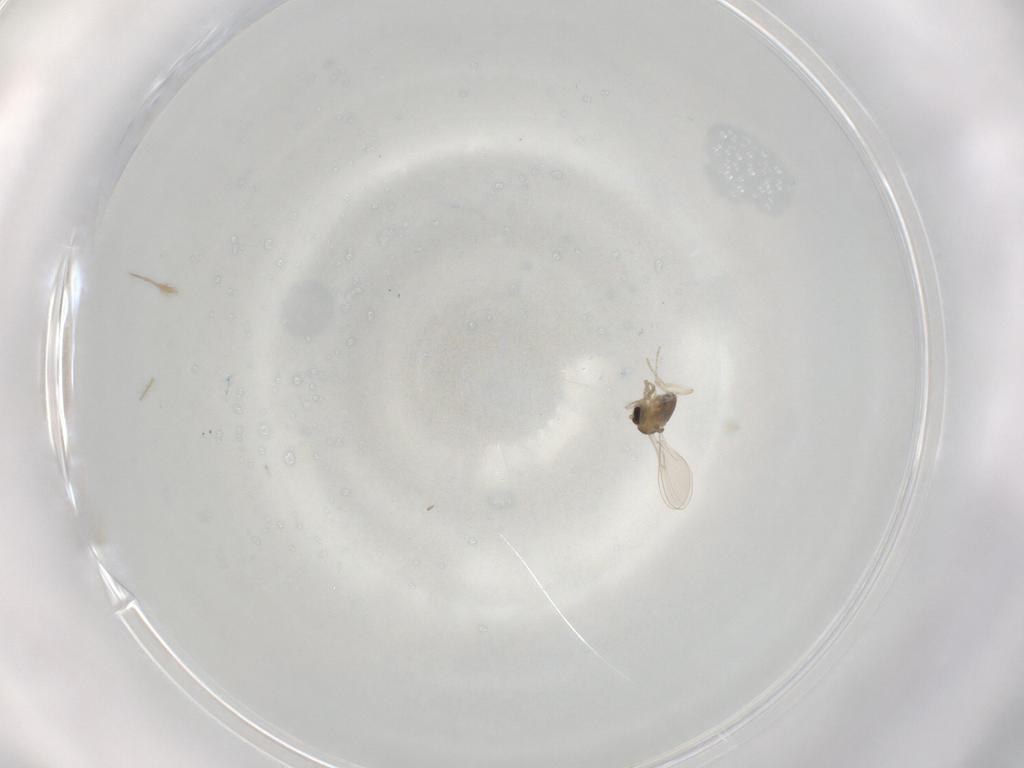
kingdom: Animalia
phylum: Arthropoda
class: Insecta
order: Diptera
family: Cecidomyiidae
